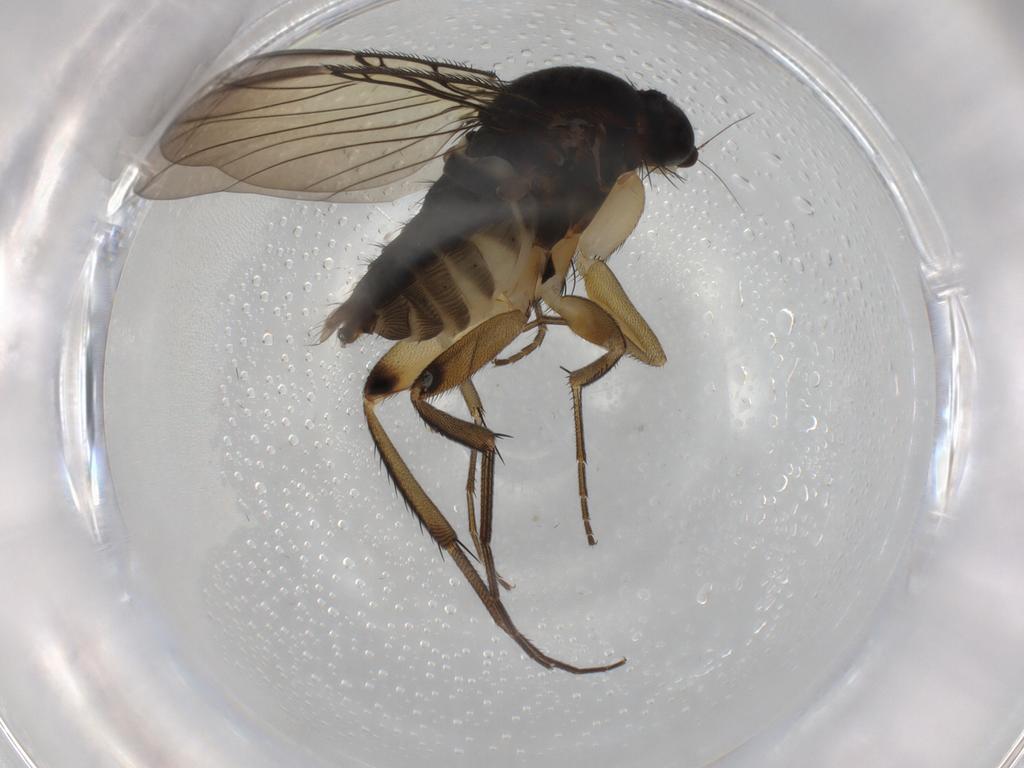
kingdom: Animalia
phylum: Arthropoda
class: Insecta
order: Diptera
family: Phoridae
